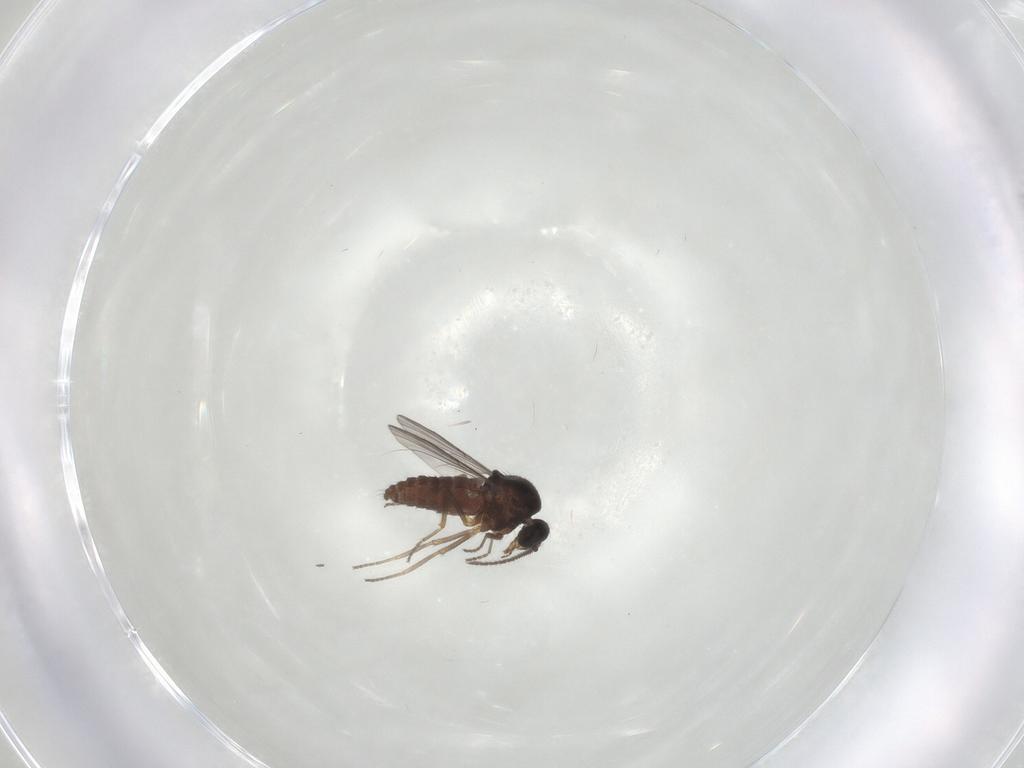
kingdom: Animalia
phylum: Arthropoda
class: Insecta
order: Diptera
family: Ceratopogonidae
